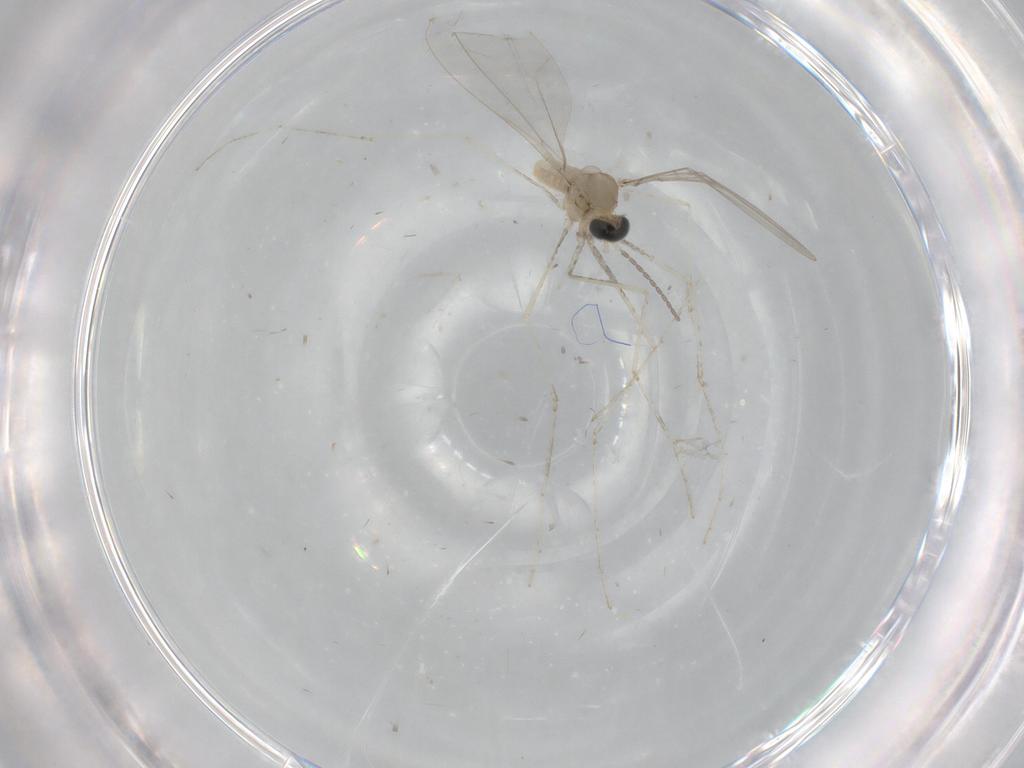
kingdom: Animalia
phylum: Arthropoda
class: Insecta
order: Diptera
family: Cecidomyiidae
